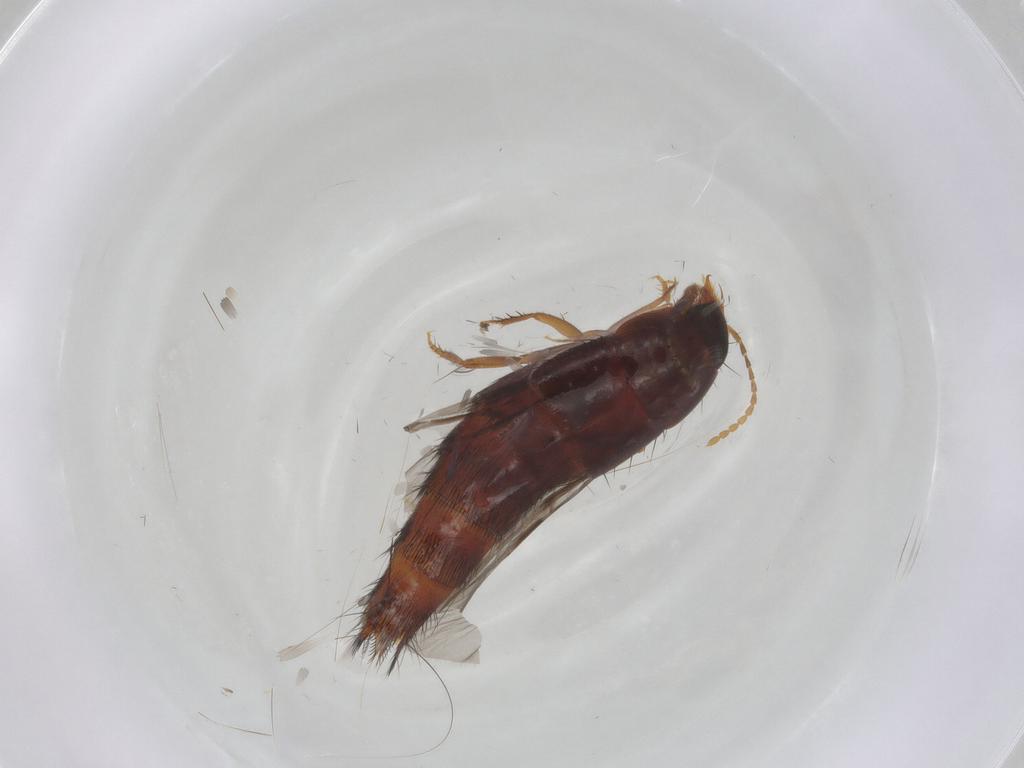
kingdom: Animalia
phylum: Arthropoda
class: Insecta
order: Coleoptera
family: Staphylinidae
